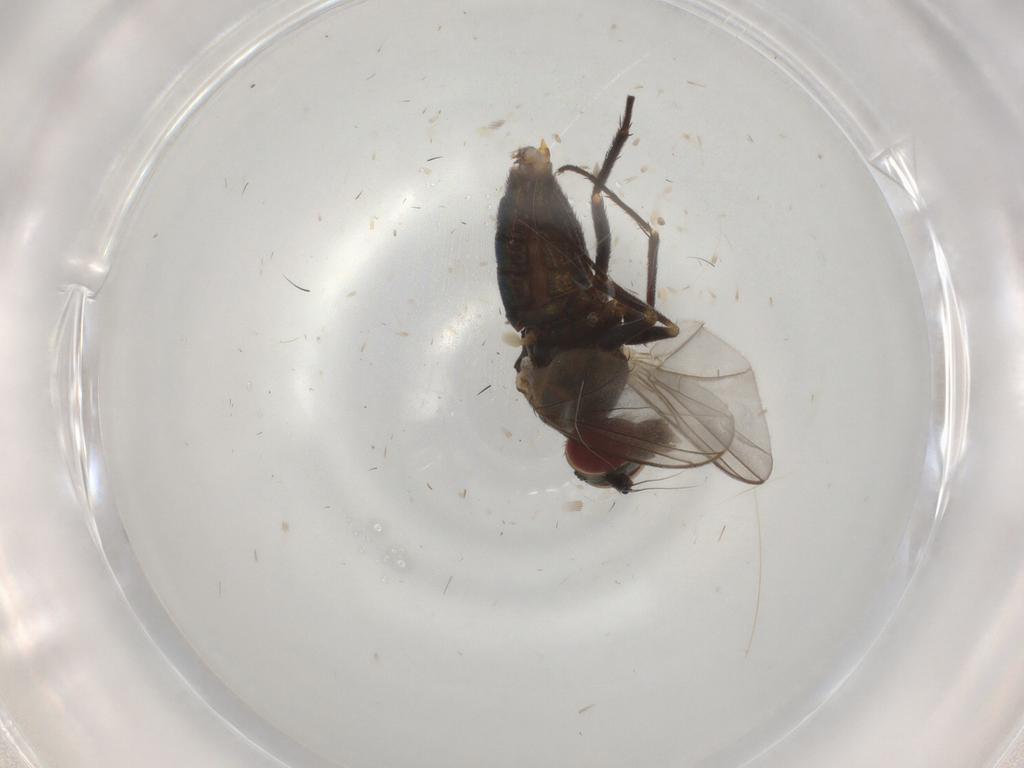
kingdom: Animalia
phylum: Arthropoda
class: Insecta
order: Diptera
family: Dolichopodidae
